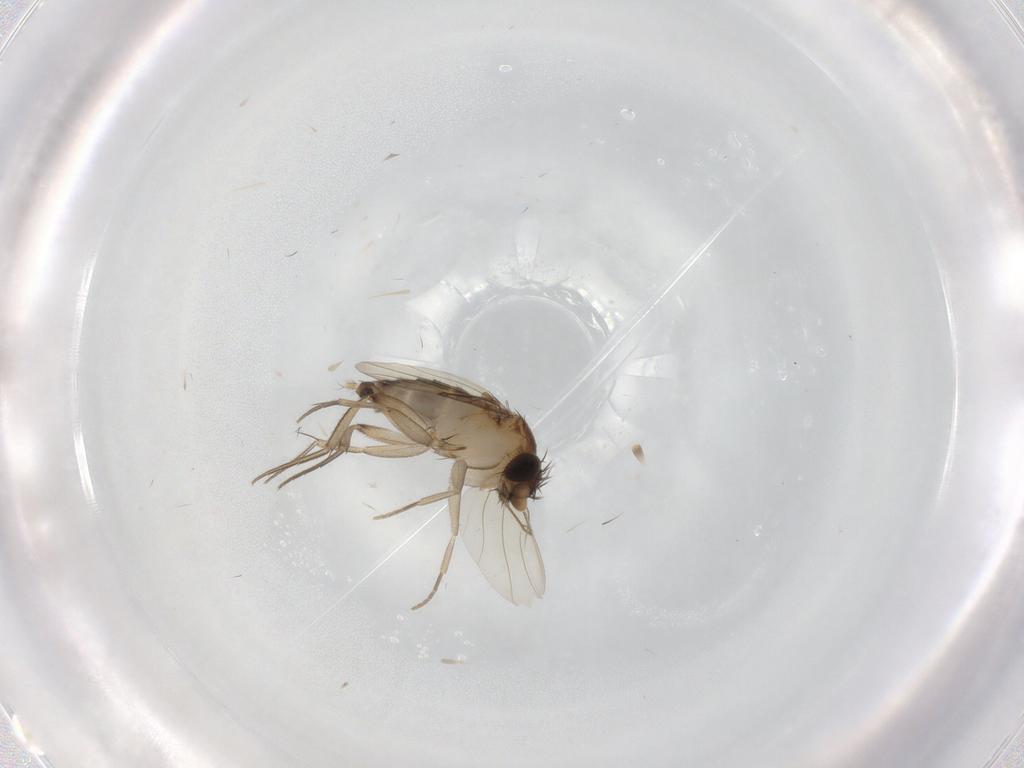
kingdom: Animalia
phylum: Arthropoda
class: Insecta
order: Diptera
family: Phoridae
